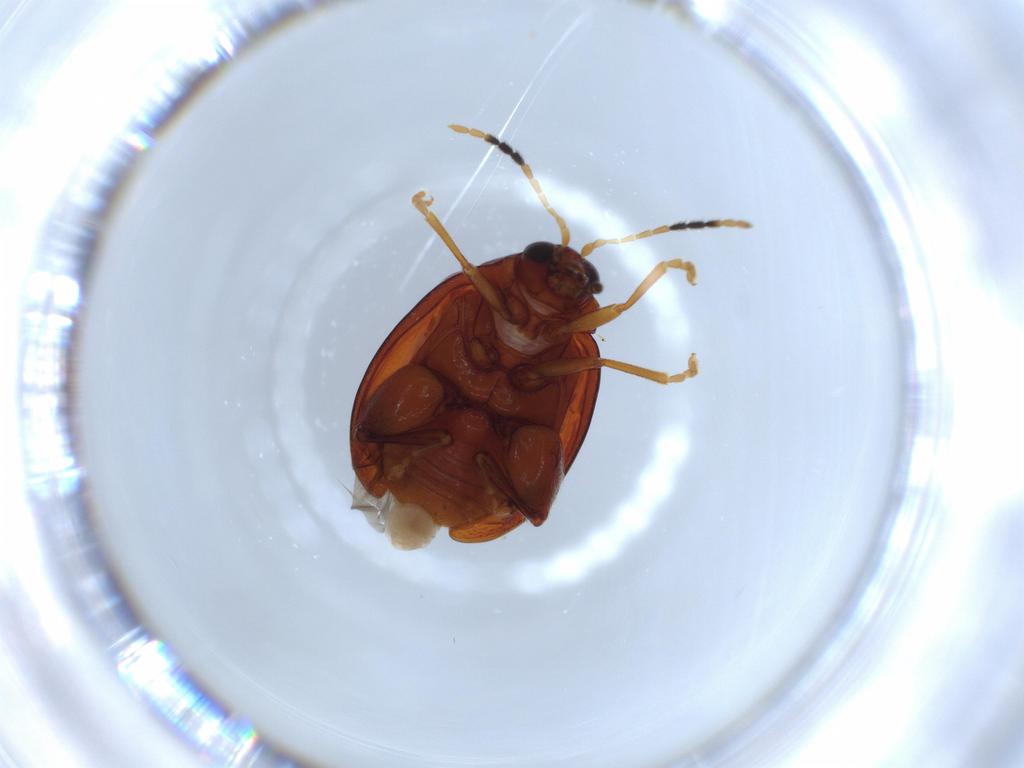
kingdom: Animalia
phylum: Arthropoda
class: Insecta
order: Coleoptera
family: Chrysomelidae
